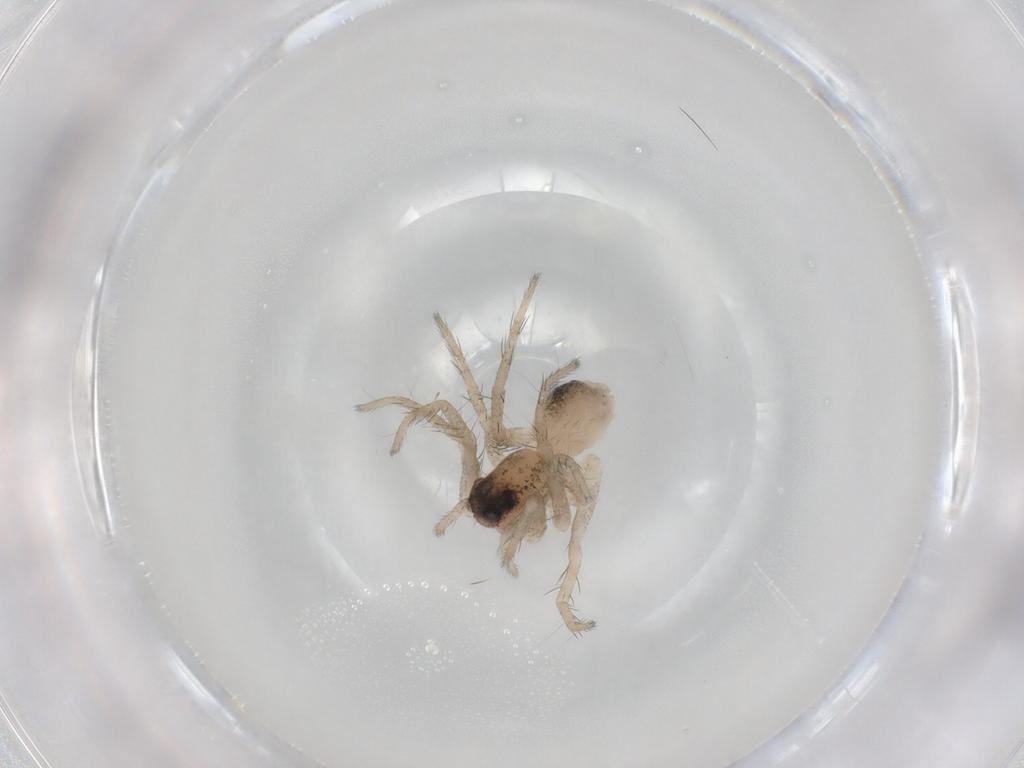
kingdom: Animalia
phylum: Arthropoda
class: Arachnida
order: Araneae
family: Lycosidae
